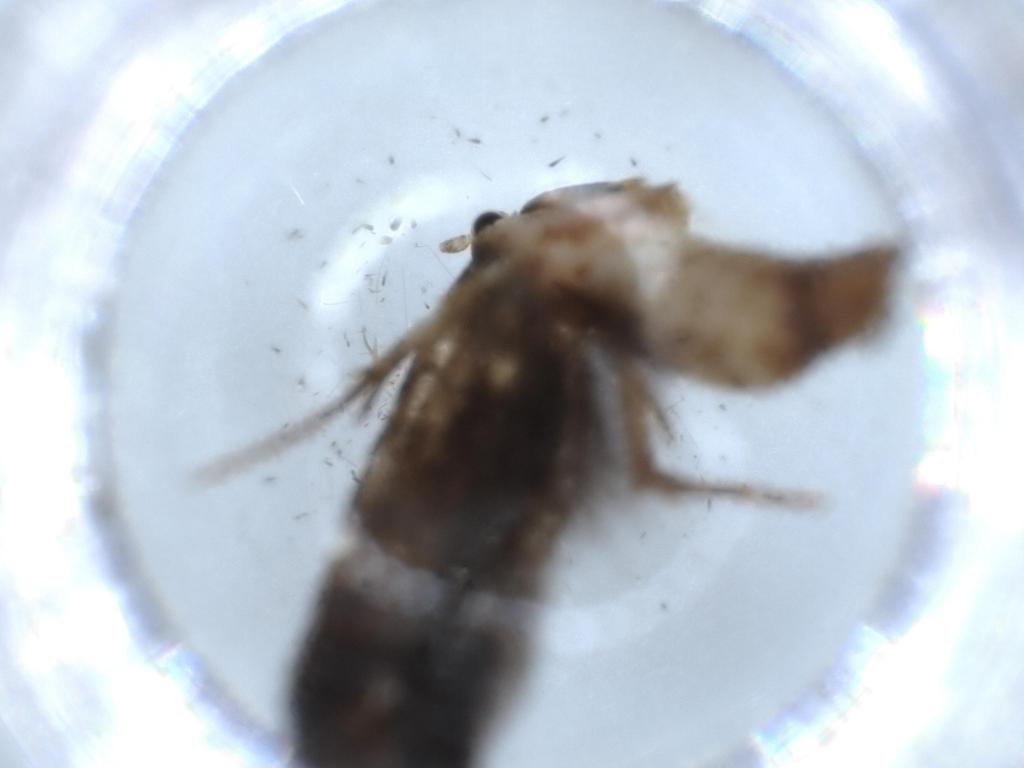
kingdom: Animalia
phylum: Arthropoda
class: Insecta
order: Lepidoptera
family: Tineidae
